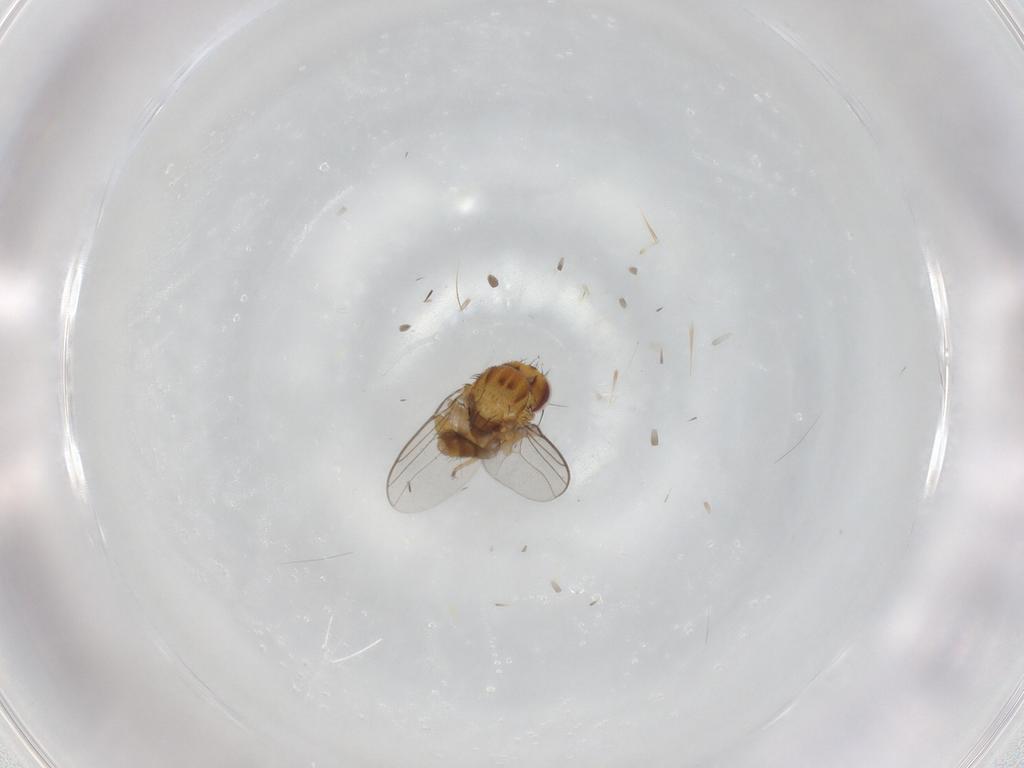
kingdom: Animalia
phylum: Arthropoda
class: Insecta
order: Diptera
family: Chloropidae
